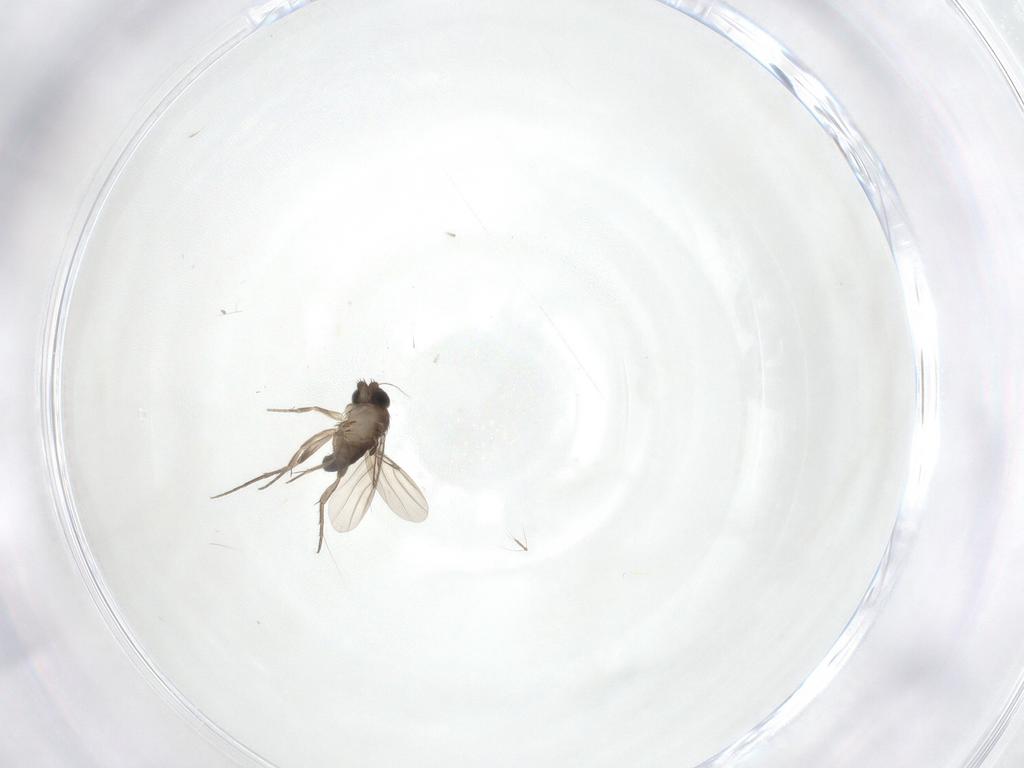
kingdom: Animalia
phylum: Arthropoda
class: Insecta
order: Diptera
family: Phoridae
